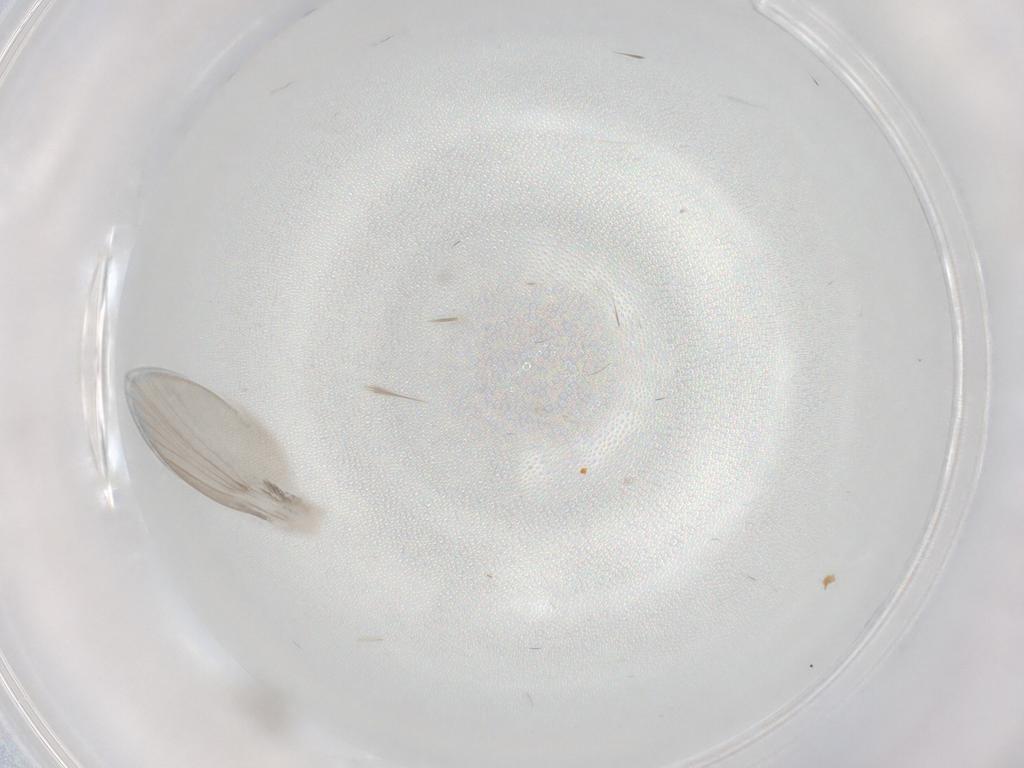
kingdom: Animalia
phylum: Arthropoda
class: Insecta
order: Diptera
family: Cecidomyiidae
